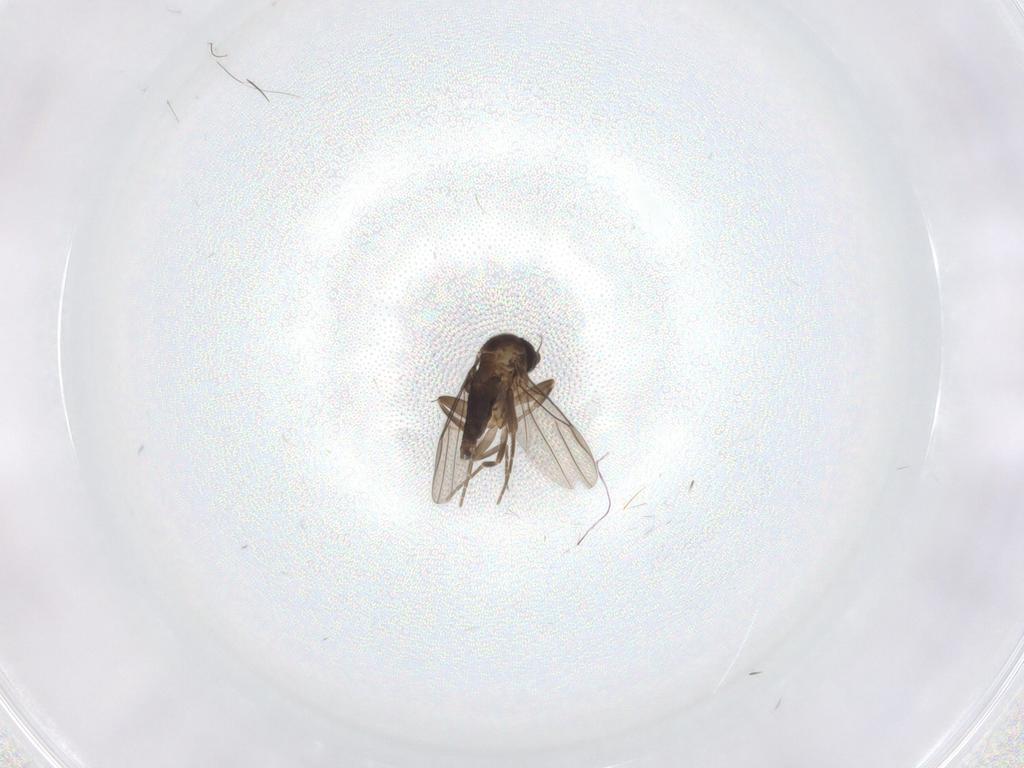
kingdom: Animalia
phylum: Arthropoda
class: Insecta
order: Diptera
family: Phoridae
